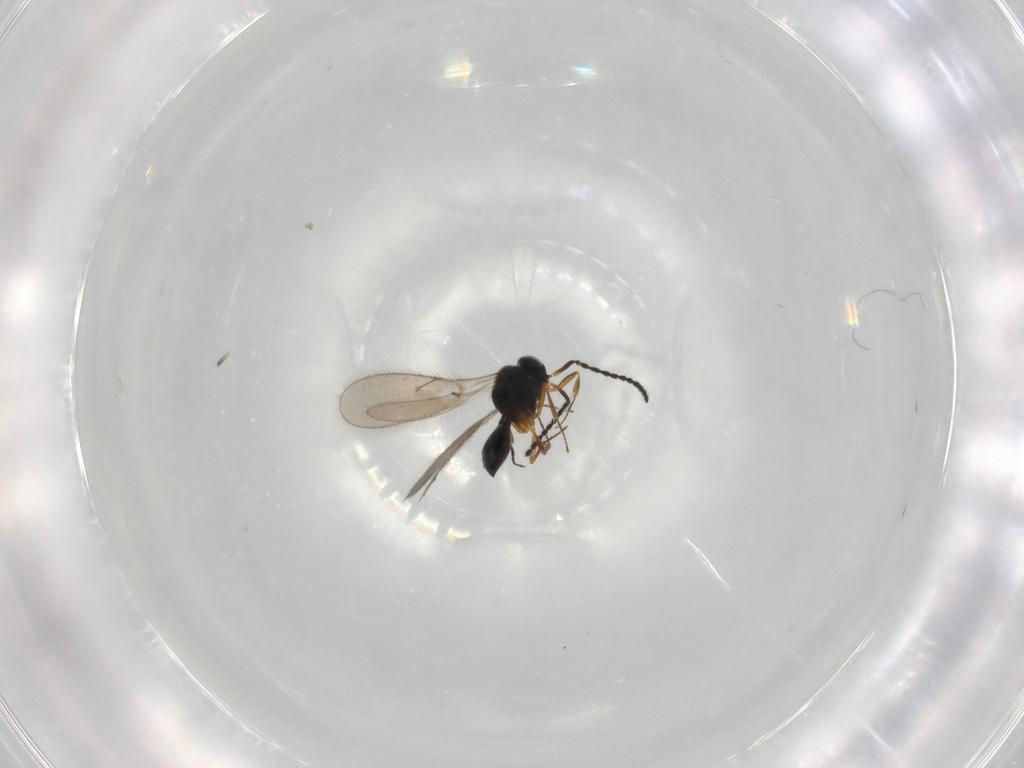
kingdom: Animalia
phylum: Arthropoda
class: Insecta
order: Hymenoptera
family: Scelionidae
